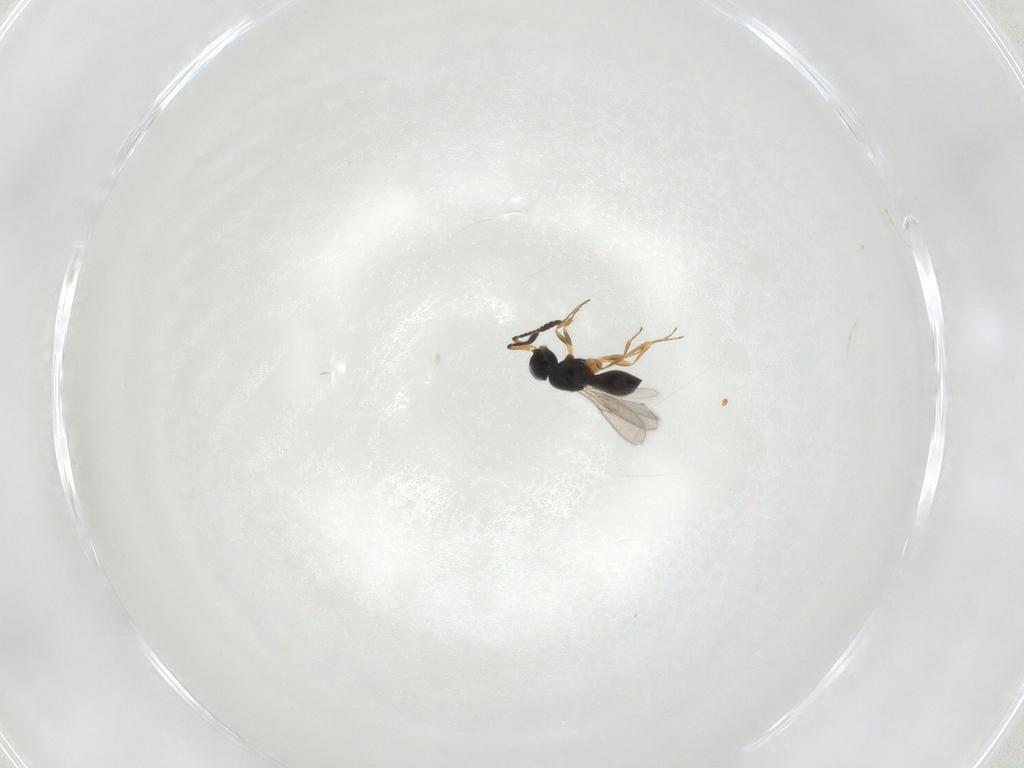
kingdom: Animalia
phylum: Arthropoda
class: Insecta
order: Hymenoptera
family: Scelionidae
